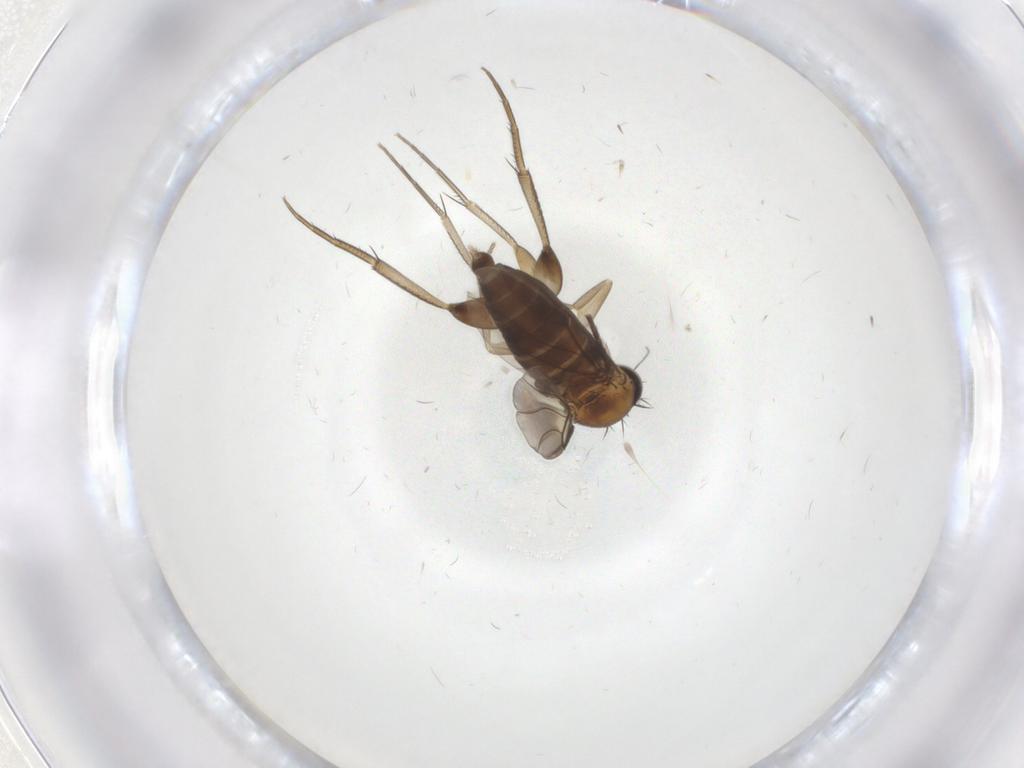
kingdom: Animalia
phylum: Arthropoda
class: Insecta
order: Diptera
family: Phoridae
